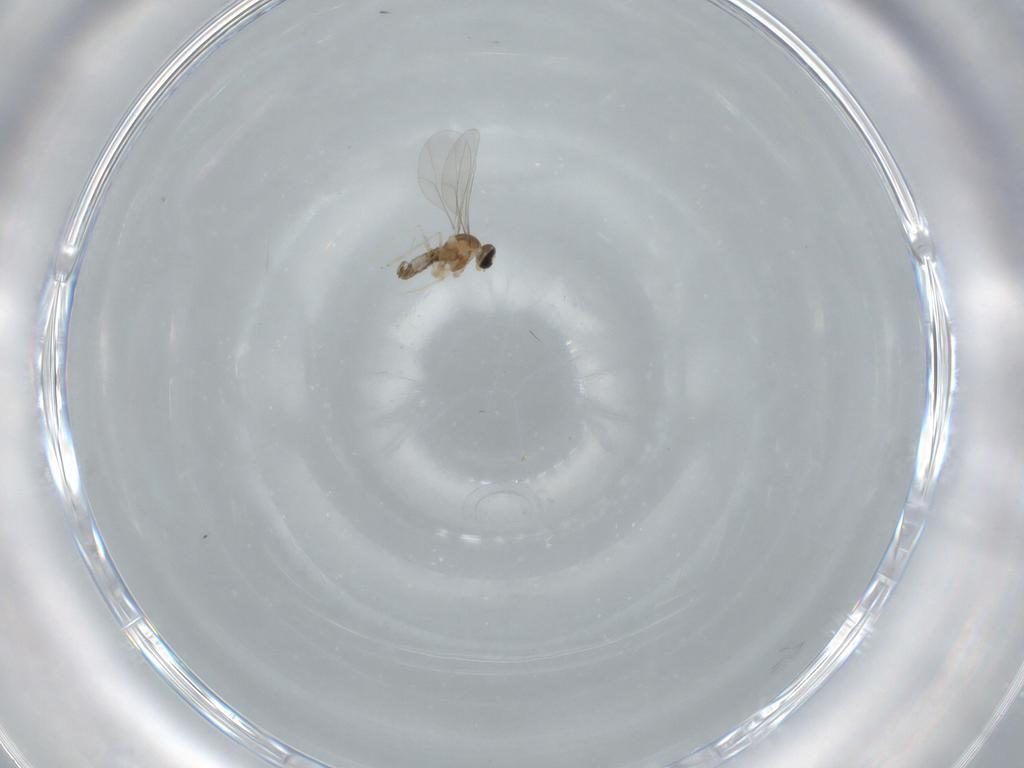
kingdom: Animalia
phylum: Arthropoda
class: Insecta
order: Diptera
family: Cecidomyiidae
